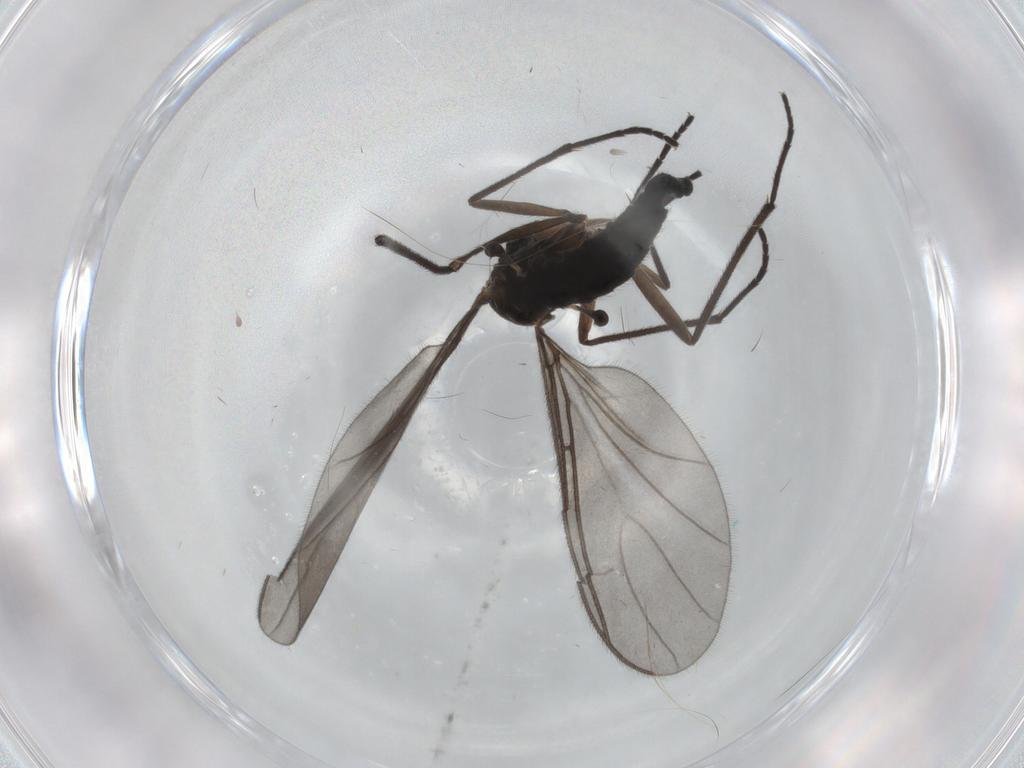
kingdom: Animalia
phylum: Arthropoda
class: Insecta
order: Diptera
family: Sciaridae
